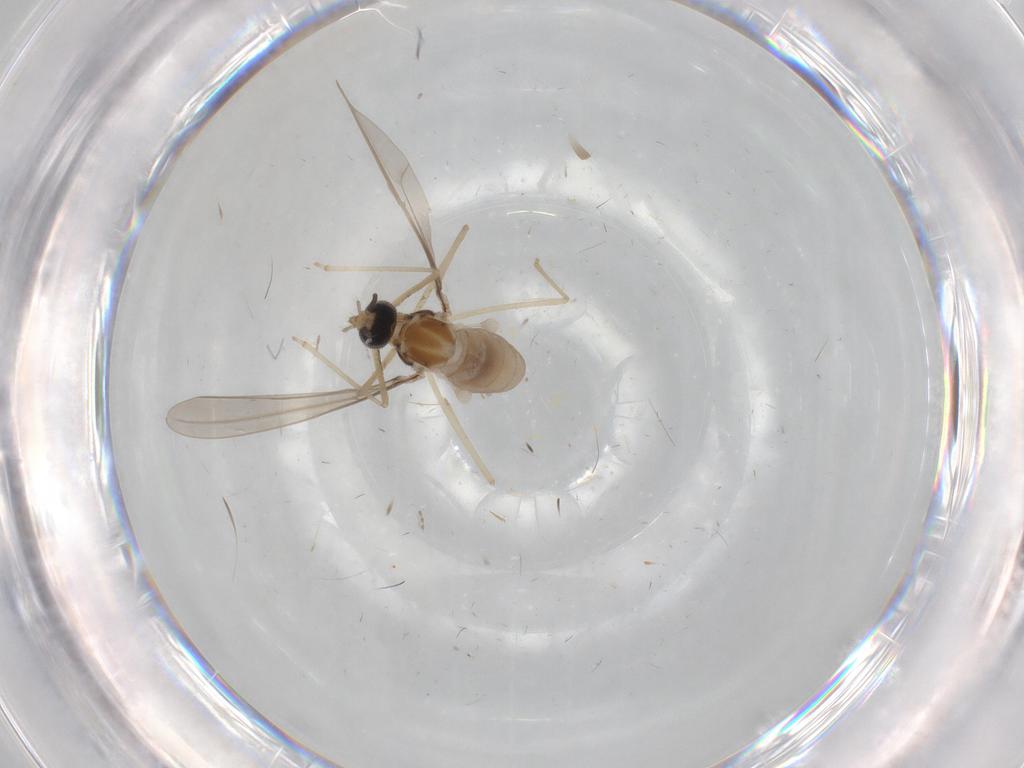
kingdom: Animalia
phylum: Arthropoda
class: Insecta
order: Diptera
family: Cecidomyiidae
